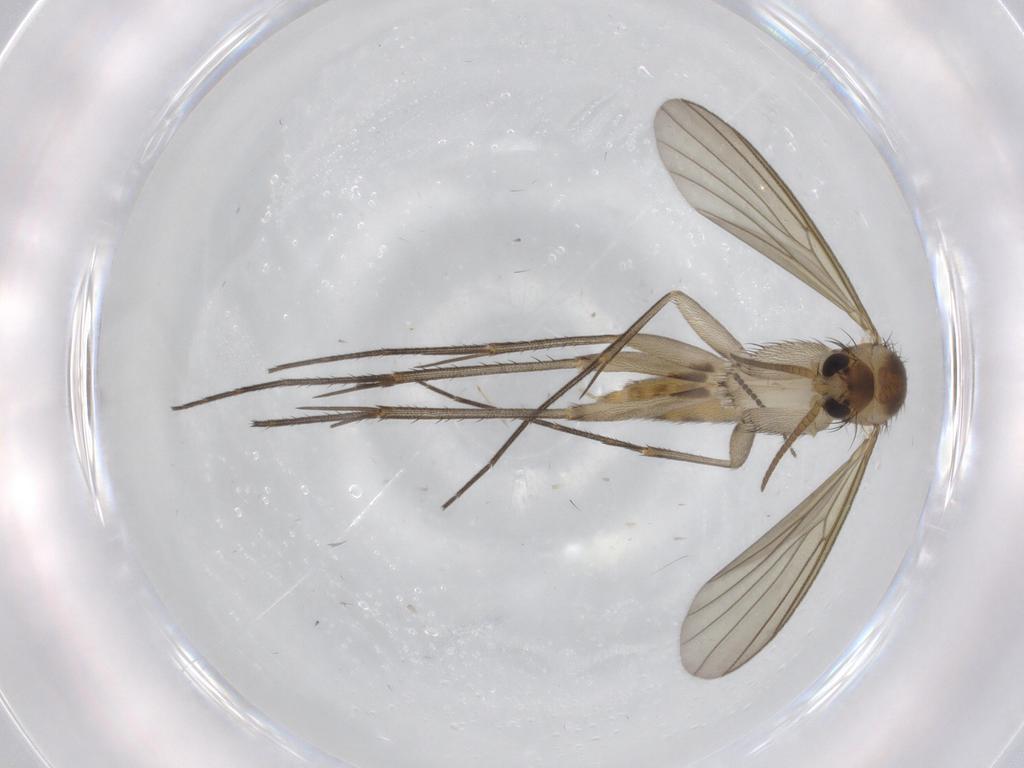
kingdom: Animalia
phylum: Arthropoda
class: Insecta
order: Diptera
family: Mycetophilidae
